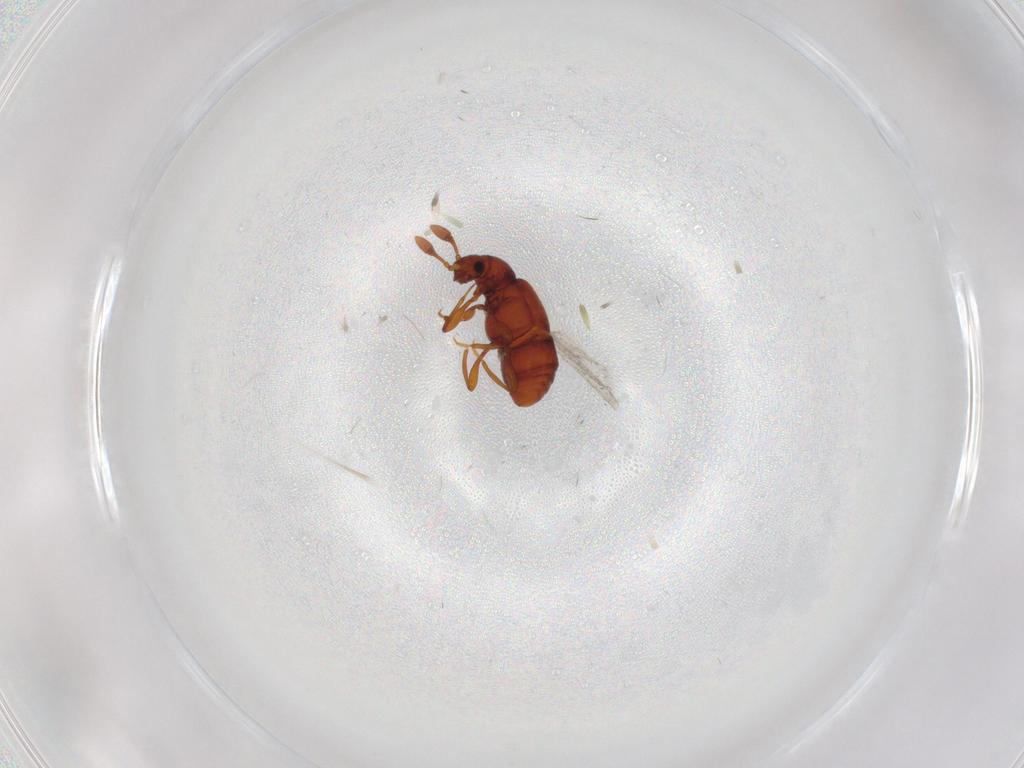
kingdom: Animalia
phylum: Arthropoda
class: Insecta
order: Coleoptera
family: Staphylinidae
